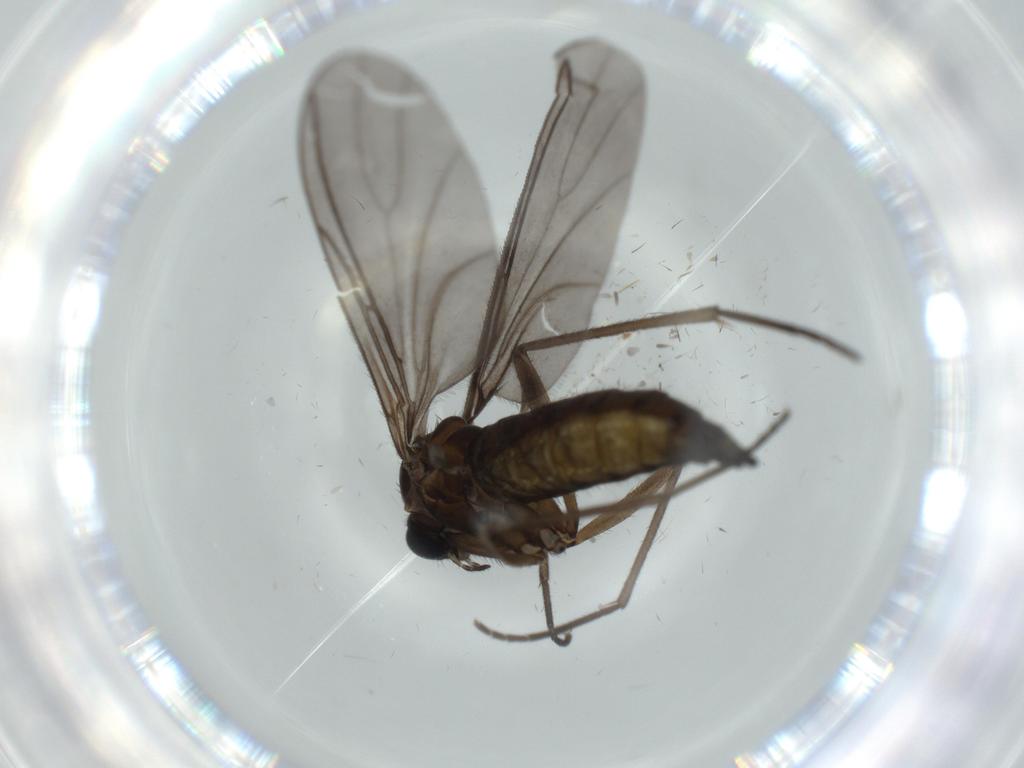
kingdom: Animalia
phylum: Arthropoda
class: Insecta
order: Diptera
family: Sciaridae
